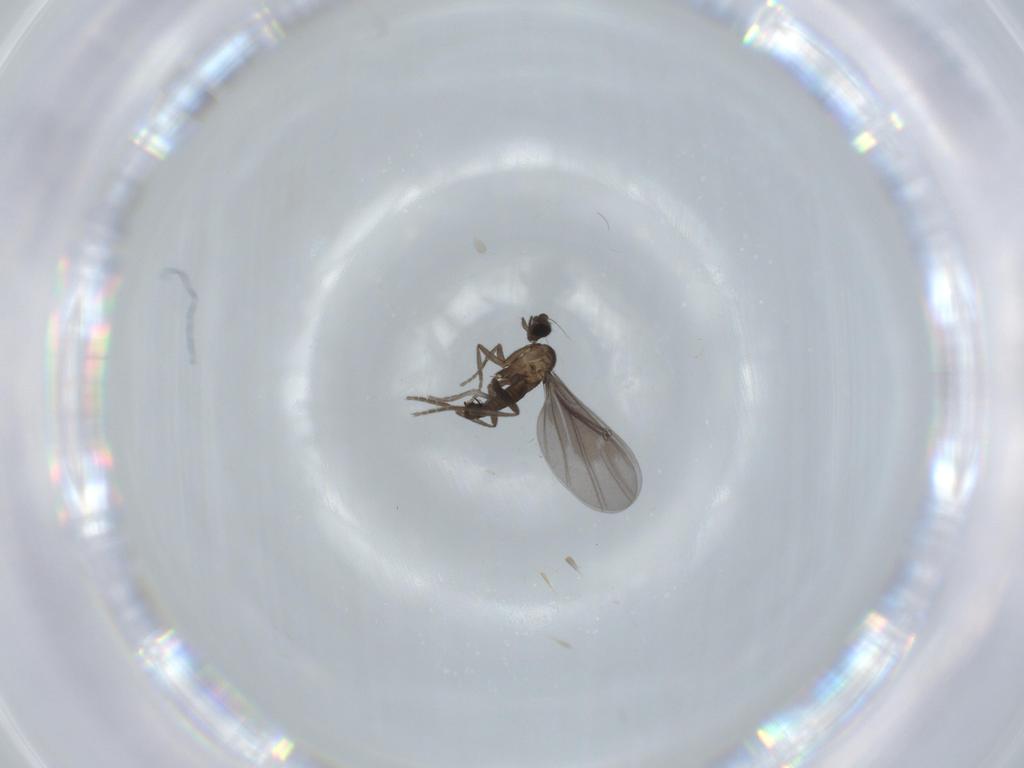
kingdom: Animalia
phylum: Arthropoda
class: Insecta
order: Diptera
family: Phoridae
